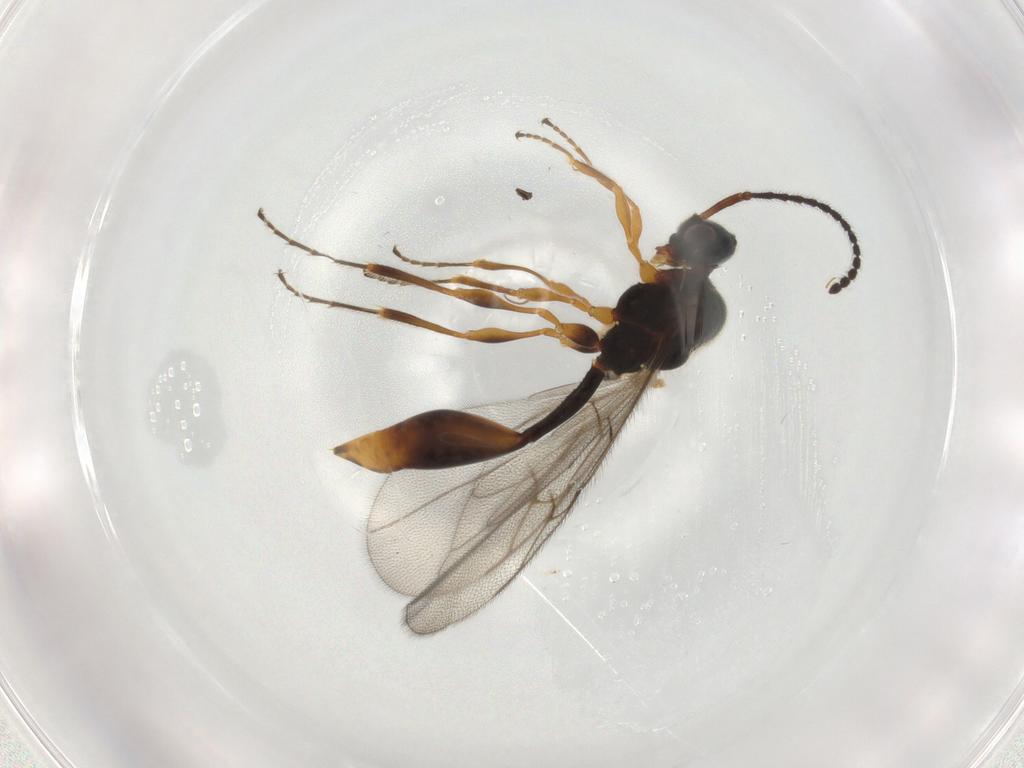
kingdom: Animalia
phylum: Arthropoda
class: Insecta
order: Hymenoptera
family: Diapriidae
